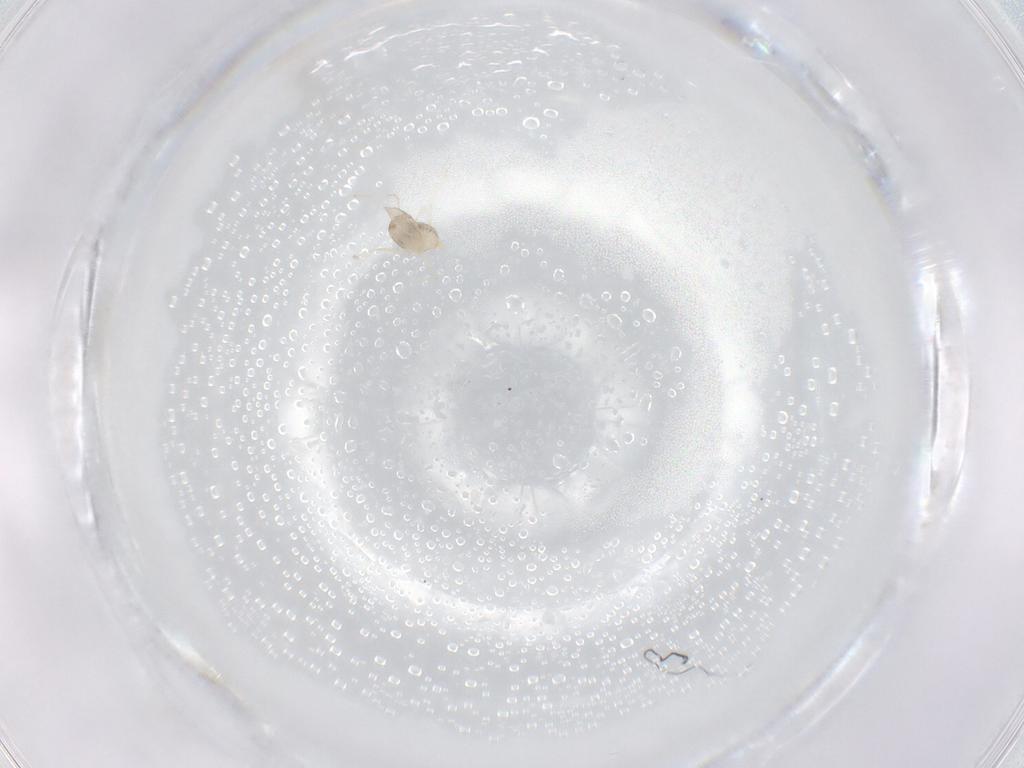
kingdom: Animalia
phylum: Arthropoda
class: Insecta
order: Diptera
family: Cecidomyiidae
